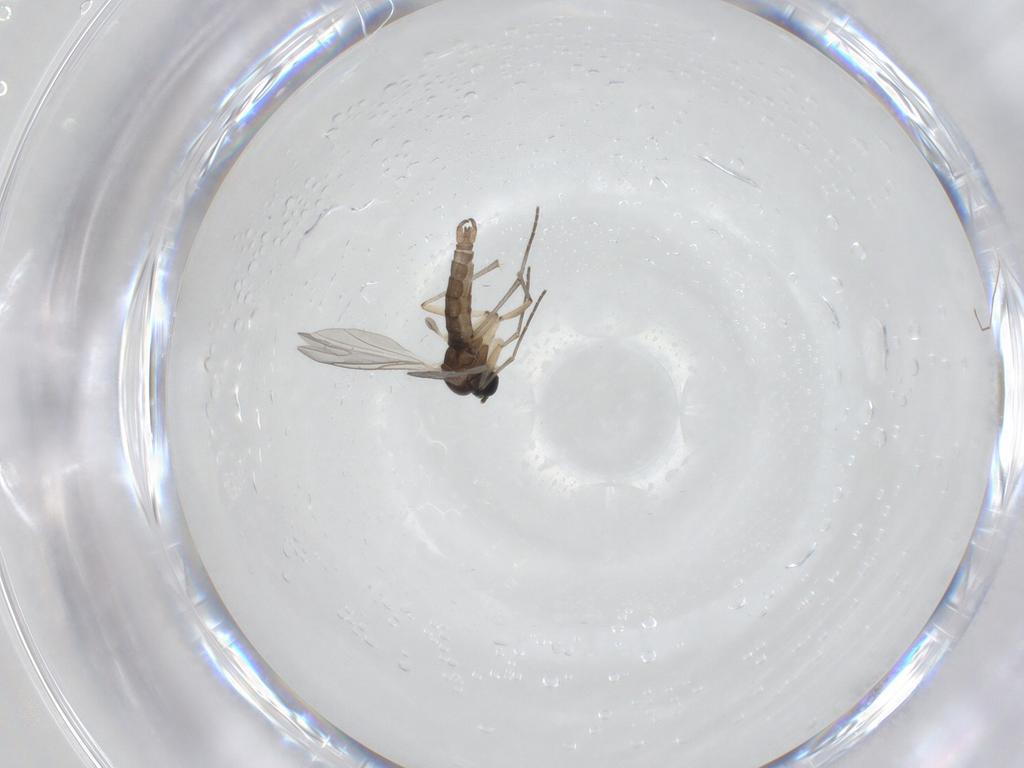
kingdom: Animalia
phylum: Arthropoda
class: Insecta
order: Diptera
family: Sciaridae
